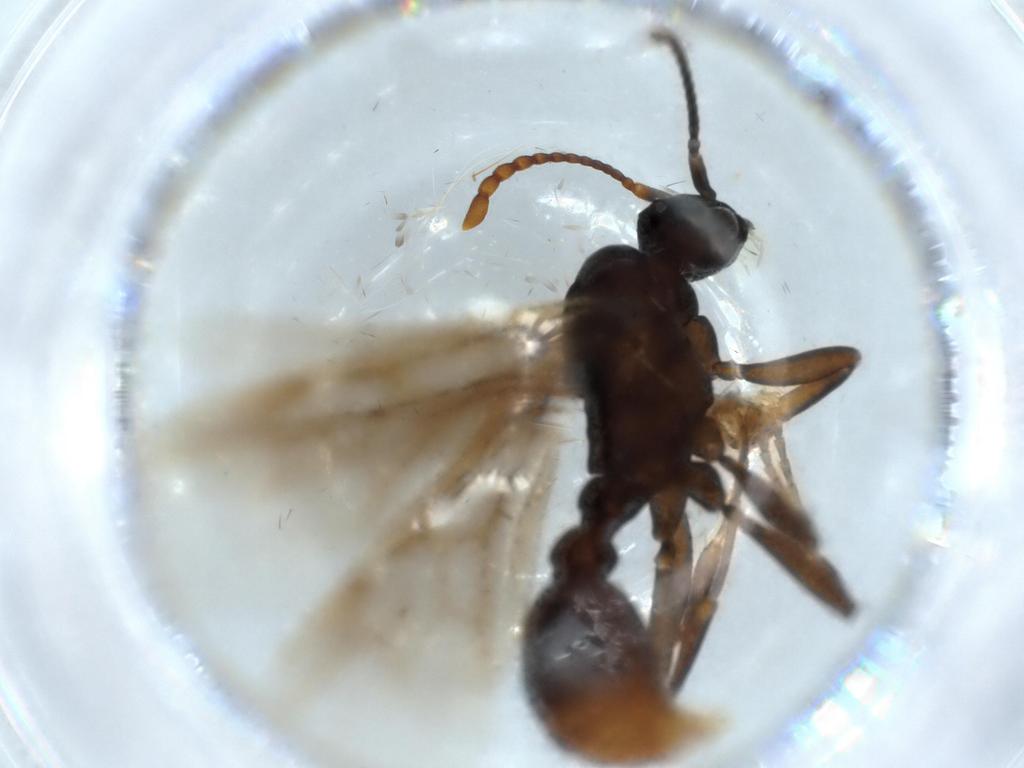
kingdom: Animalia
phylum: Arthropoda
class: Insecta
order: Hymenoptera
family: Formicidae
